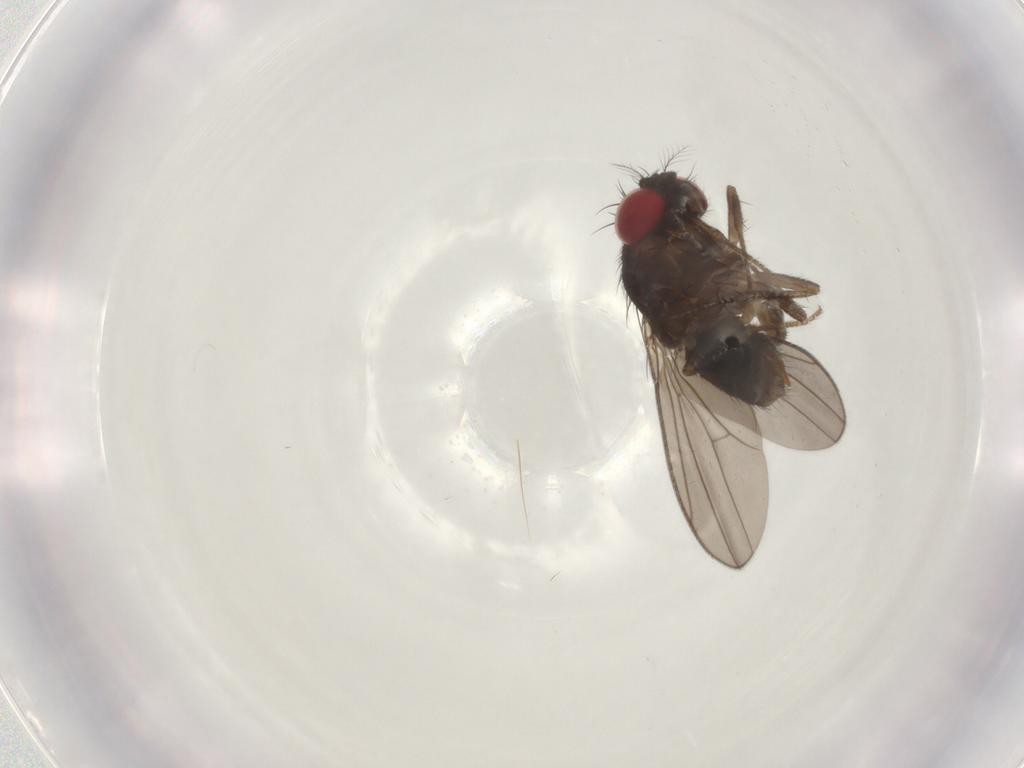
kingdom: Animalia
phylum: Arthropoda
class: Insecta
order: Diptera
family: Drosophilidae
